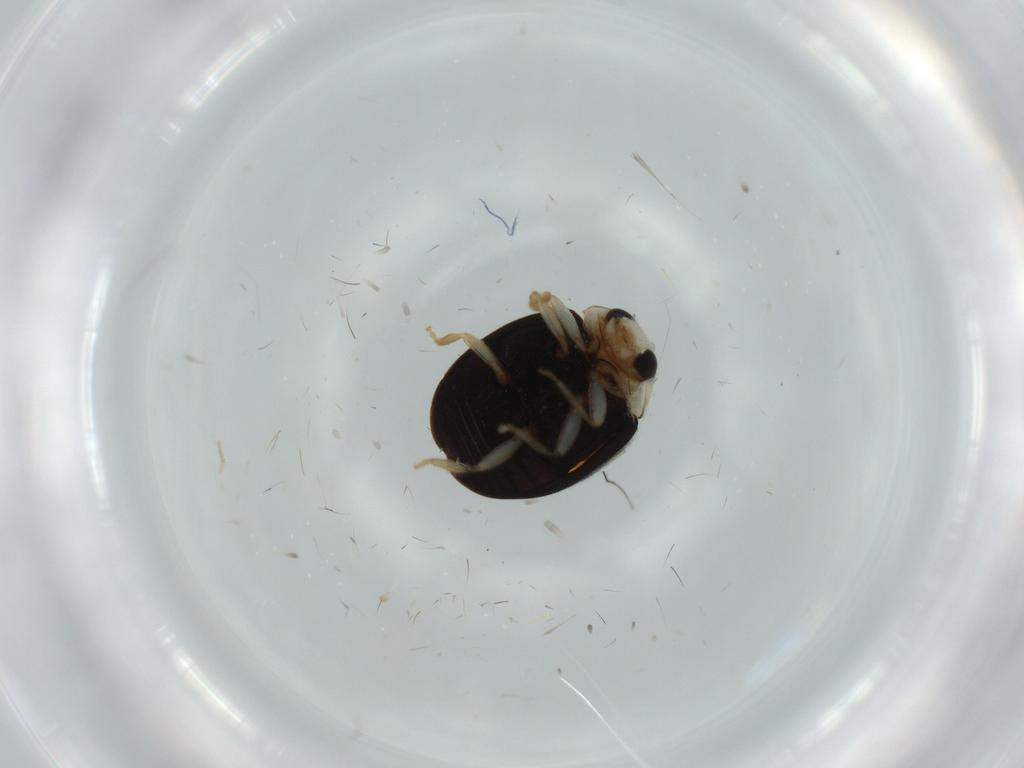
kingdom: Animalia
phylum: Arthropoda
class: Insecta
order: Coleoptera
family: Coccinellidae
